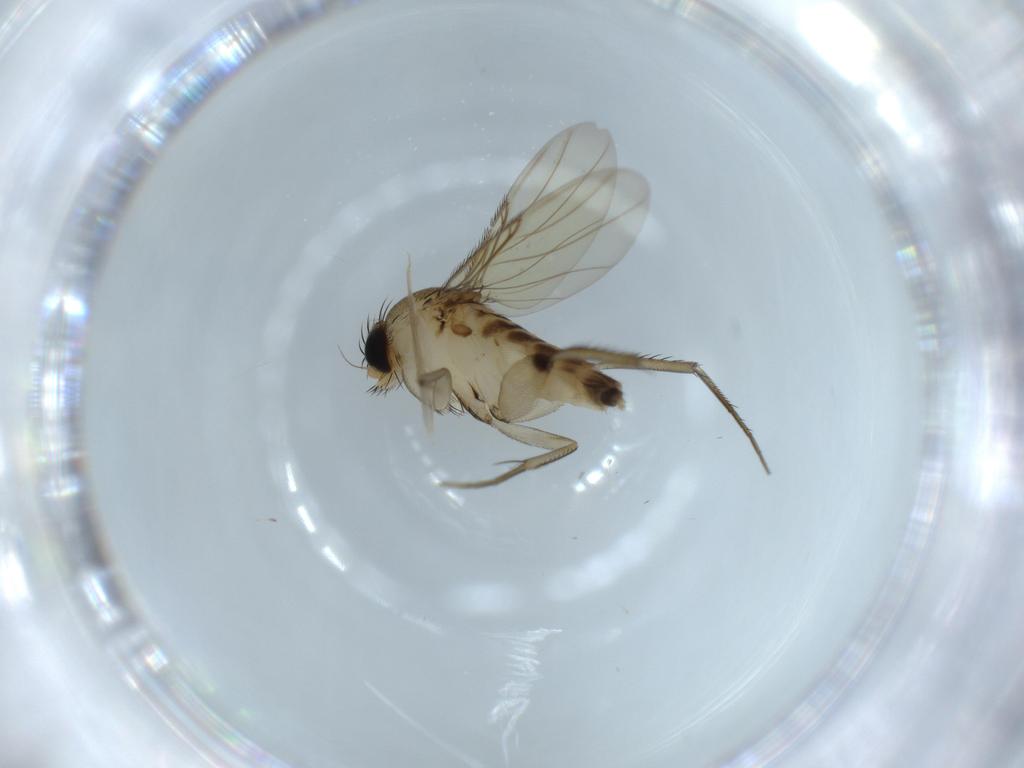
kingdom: Animalia
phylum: Arthropoda
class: Insecta
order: Diptera
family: Phoridae
